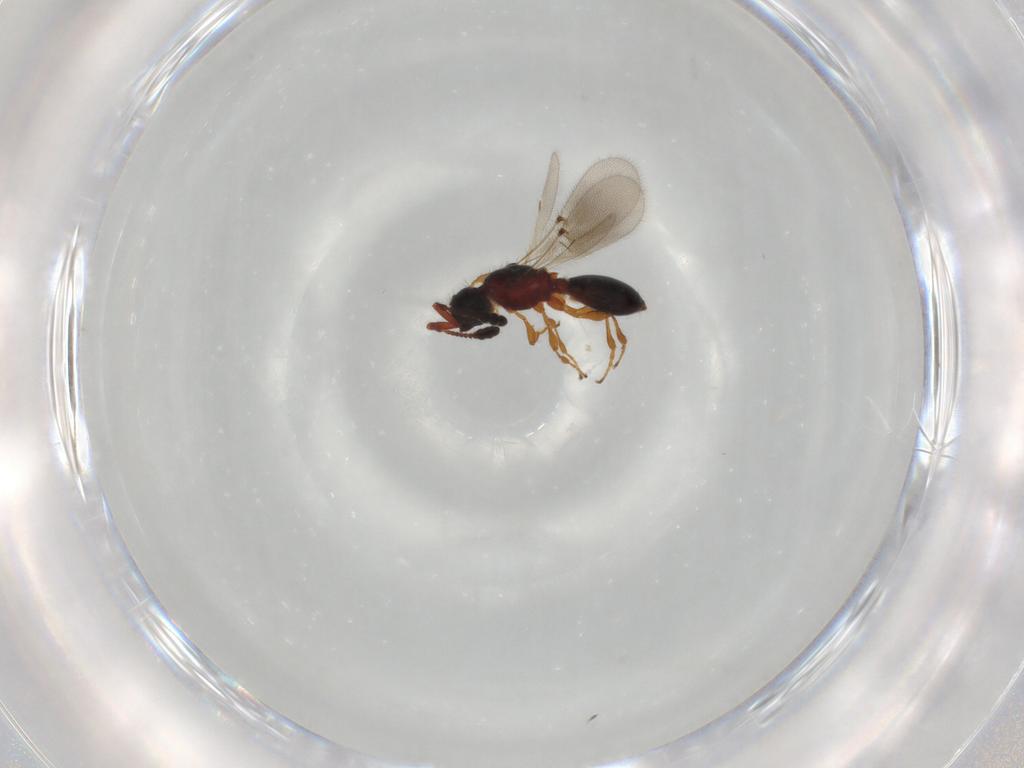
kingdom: Animalia
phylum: Arthropoda
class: Insecta
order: Hymenoptera
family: Diapriidae
